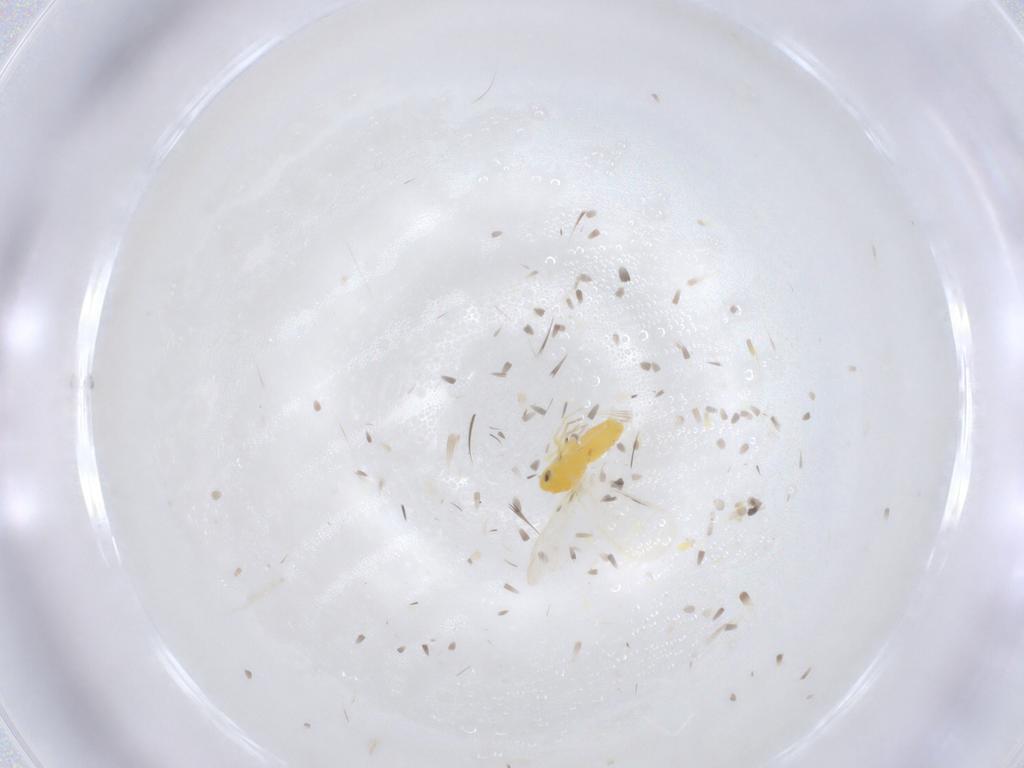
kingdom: Animalia
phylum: Arthropoda
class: Insecta
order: Hemiptera
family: Aleyrodidae
